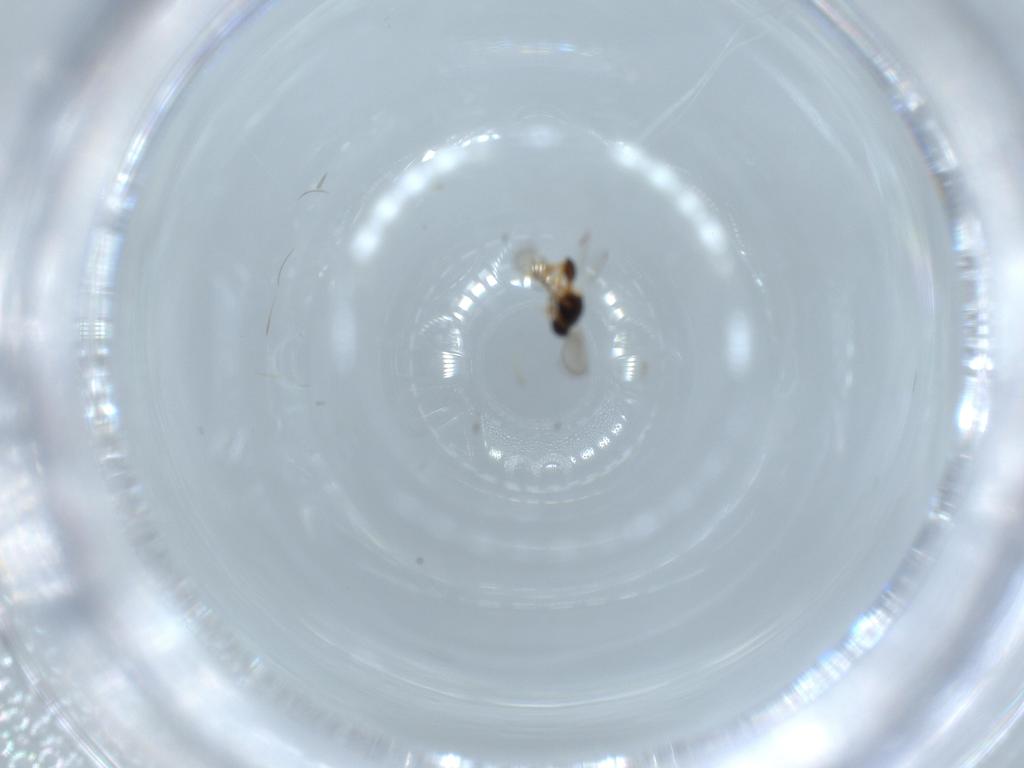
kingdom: Animalia
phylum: Arthropoda
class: Insecta
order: Hymenoptera
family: Platygastridae
